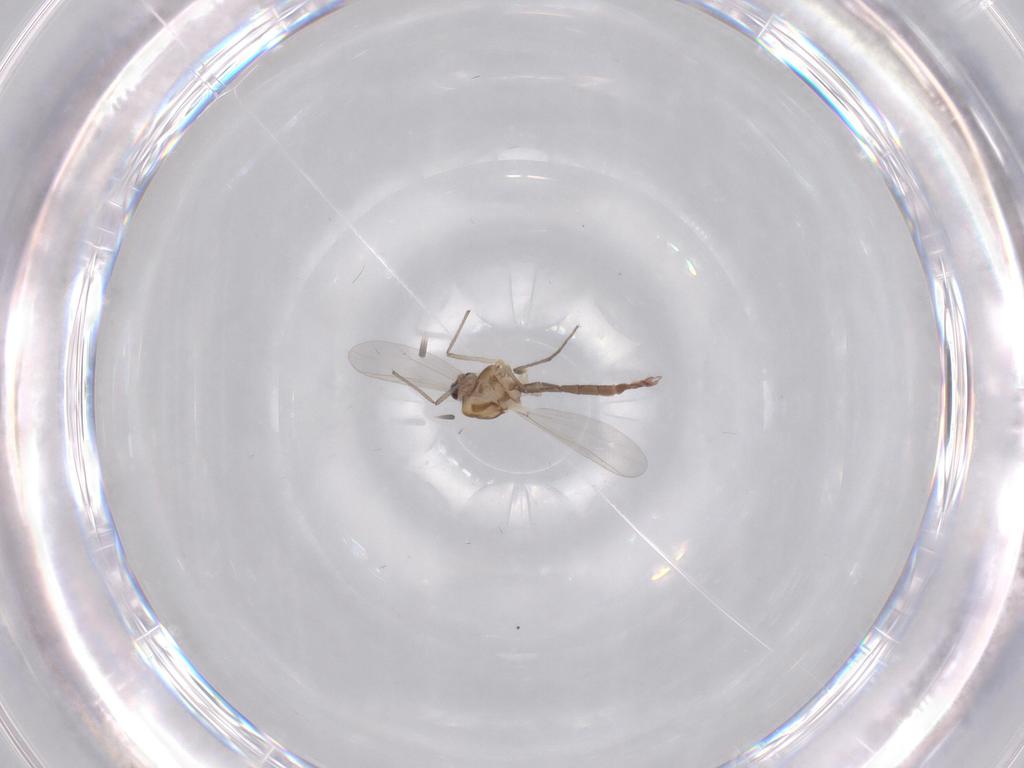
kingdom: Animalia
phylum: Arthropoda
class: Insecta
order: Diptera
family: Chironomidae
